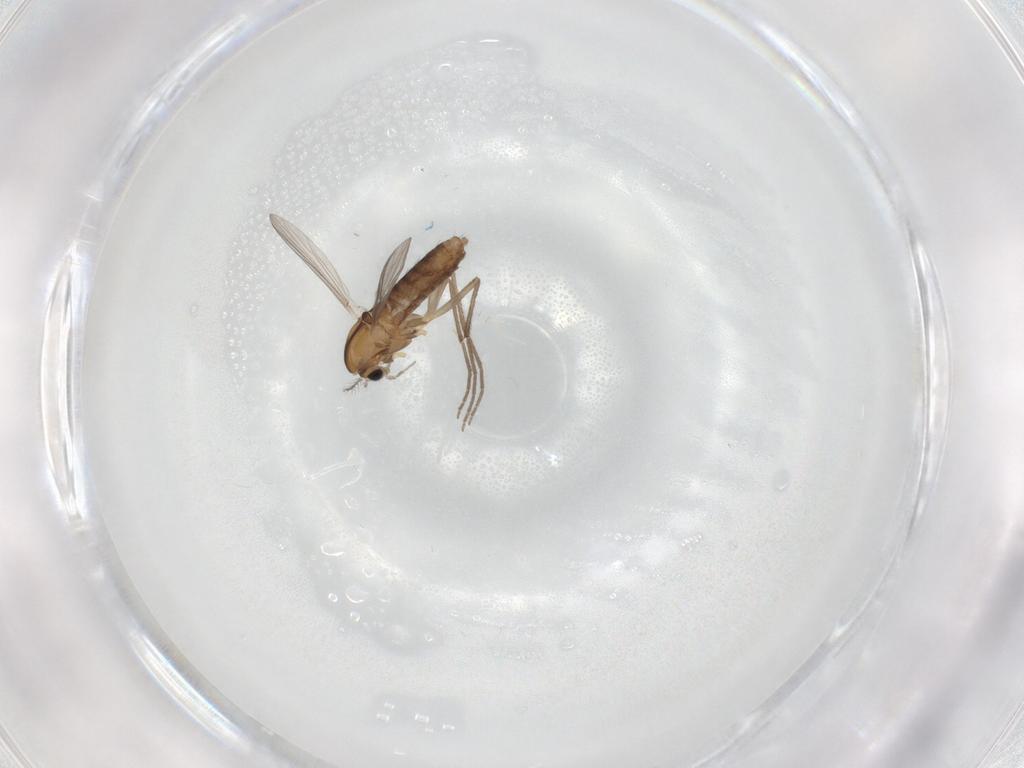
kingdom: Animalia
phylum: Arthropoda
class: Insecta
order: Diptera
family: Chironomidae
